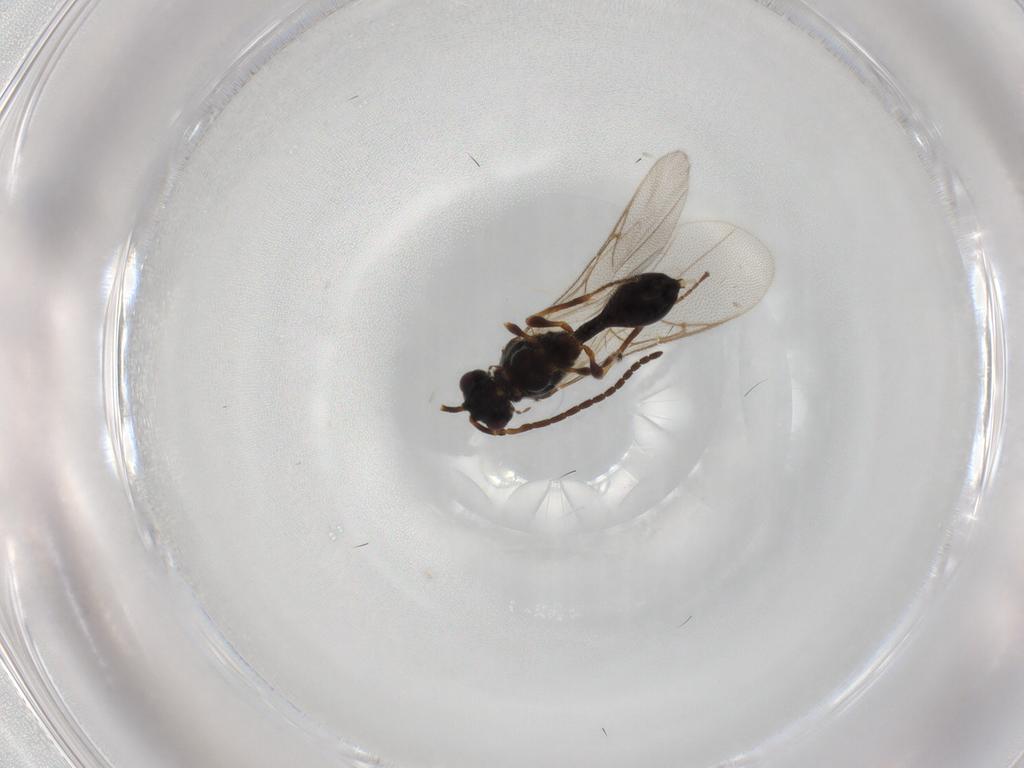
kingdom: Animalia
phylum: Arthropoda
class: Insecta
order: Hymenoptera
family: Diapriidae
